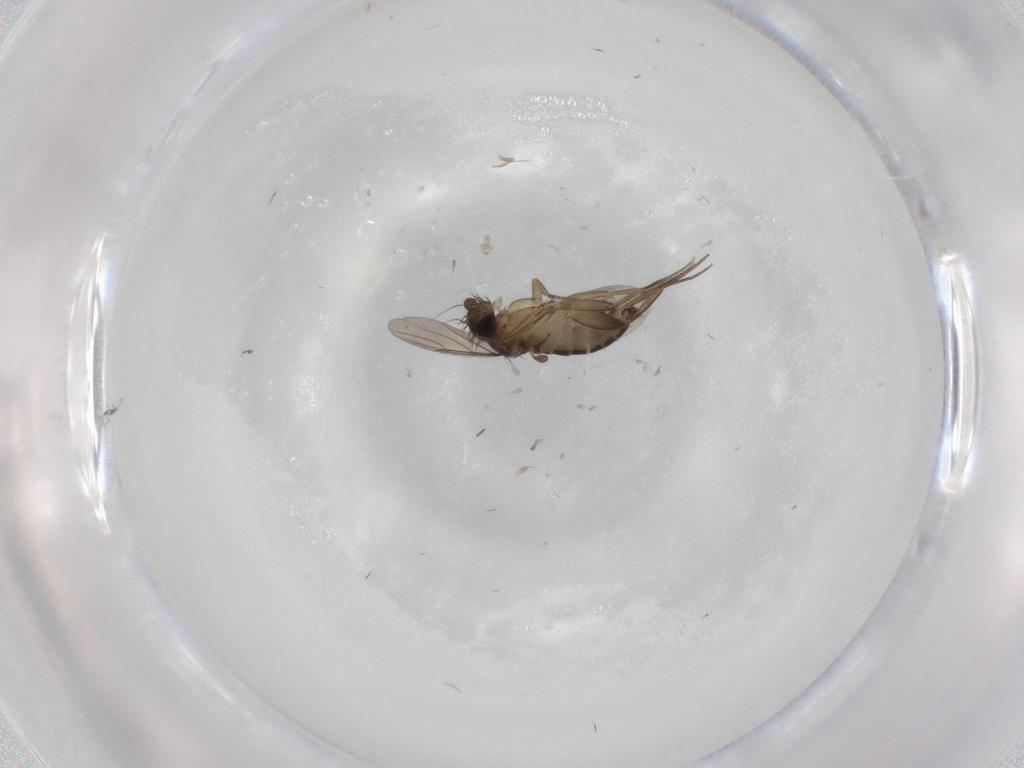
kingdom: Animalia
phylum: Arthropoda
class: Insecta
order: Diptera
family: Phoridae
